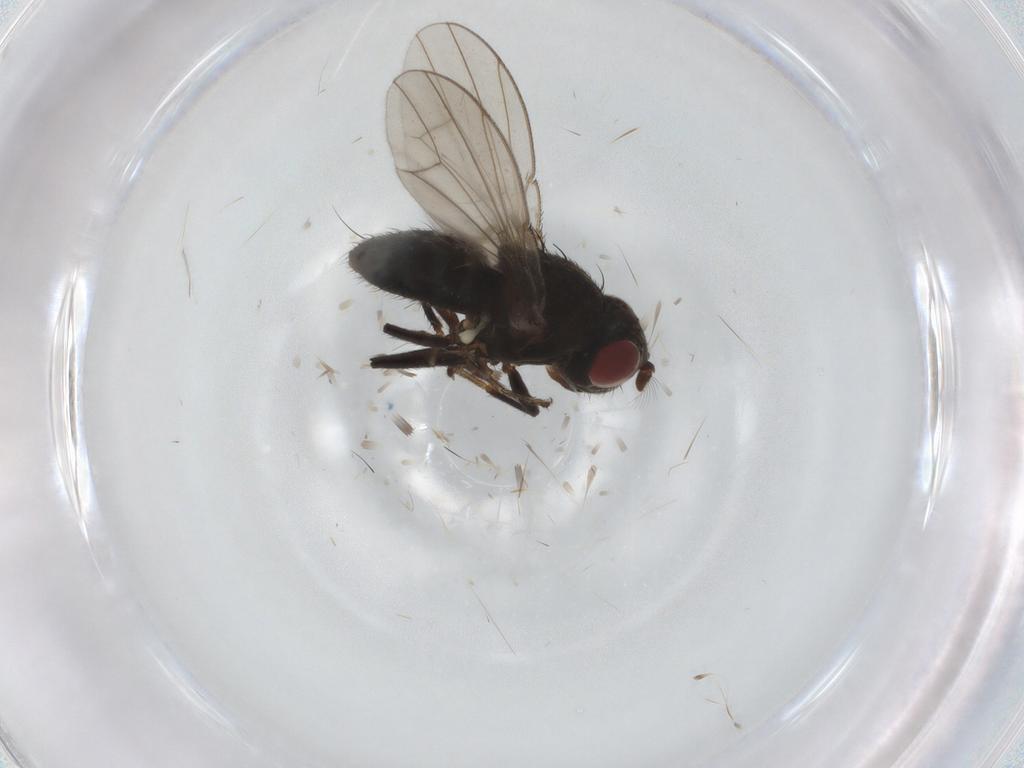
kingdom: Animalia
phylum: Arthropoda
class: Insecta
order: Diptera
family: Ephydridae
